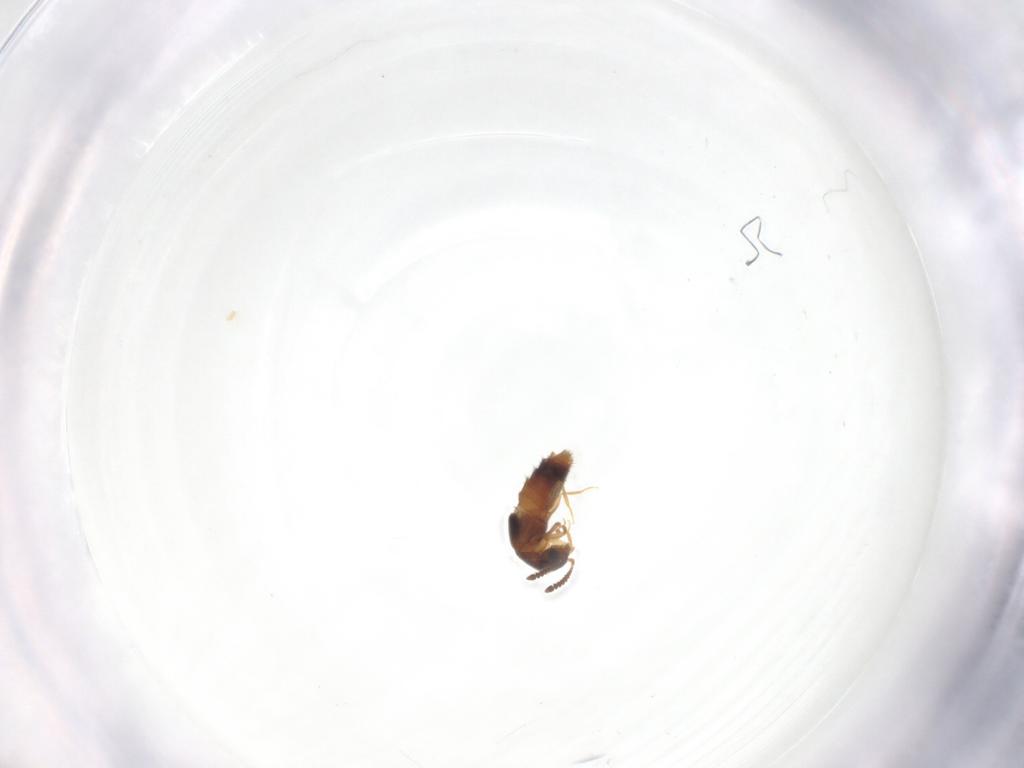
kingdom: Animalia
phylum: Arthropoda
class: Insecta
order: Coleoptera
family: Staphylinidae
